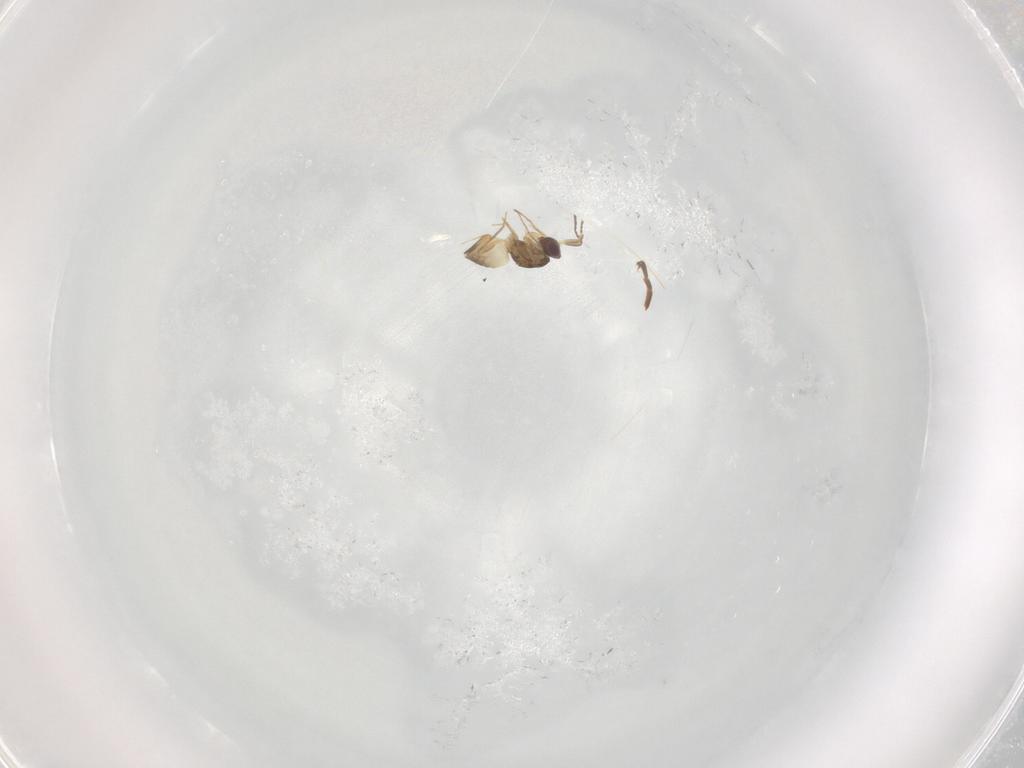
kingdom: Animalia
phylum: Arthropoda
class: Insecta
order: Hymenoptera
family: Bethylidae
